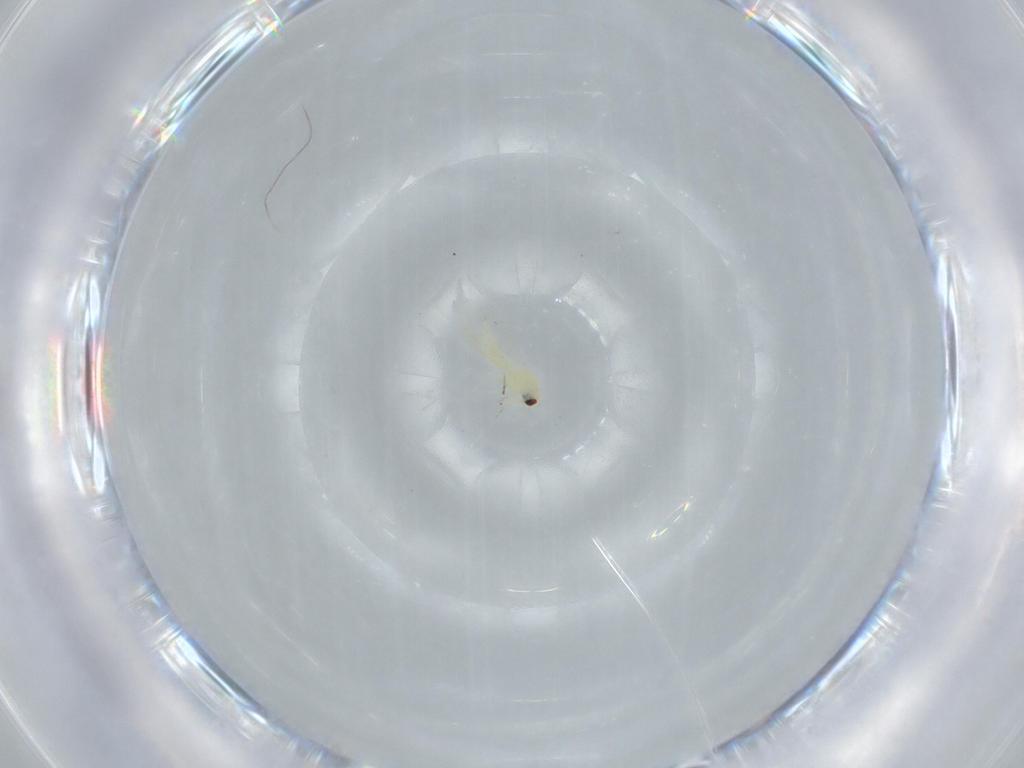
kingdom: Animalia
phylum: Arthropoda
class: Insecta
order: Hemiptera
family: Aleyrodidae
